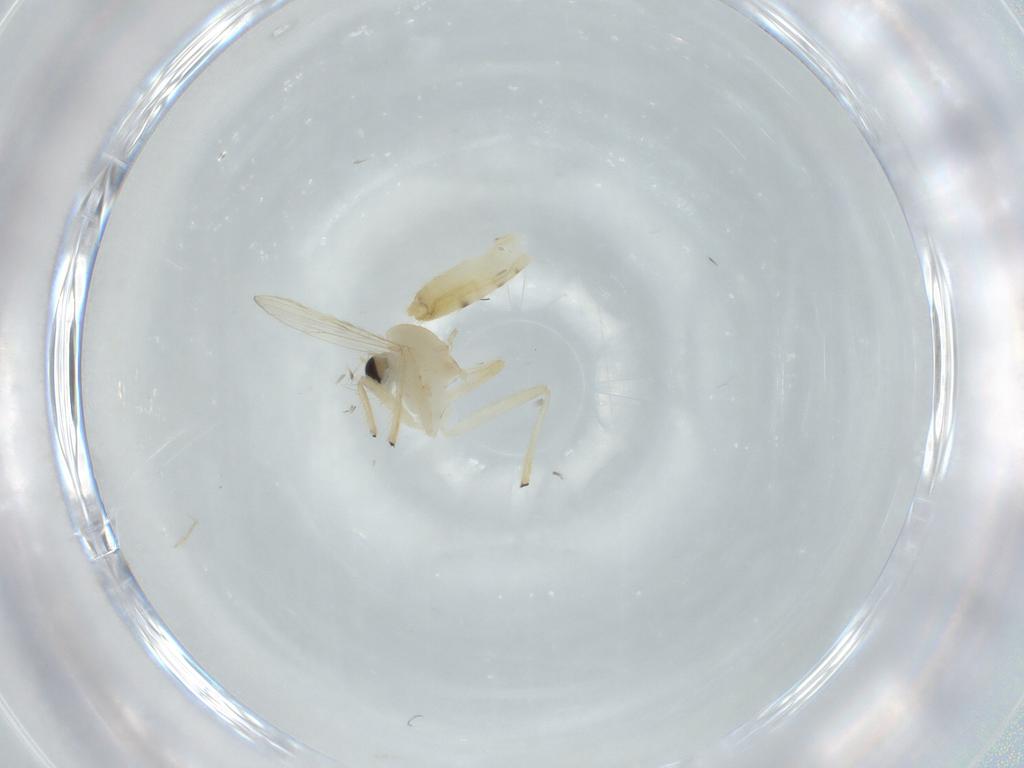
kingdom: Animalia
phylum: Arthropoda
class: Insecta
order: Diptera
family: Chironomidae
